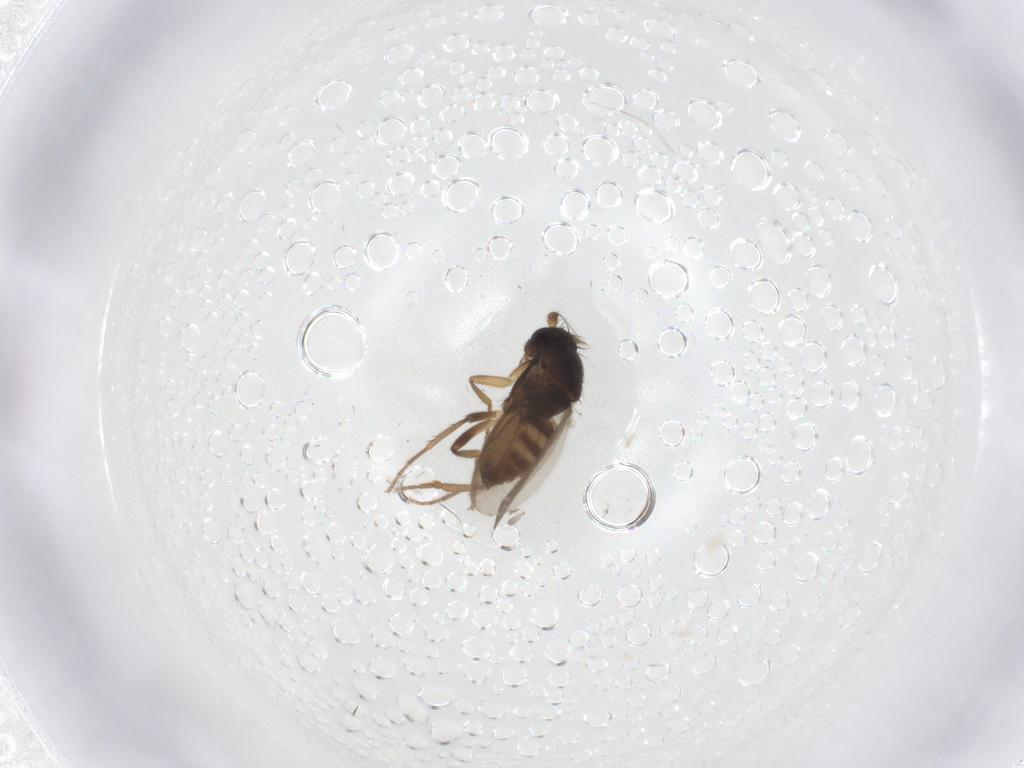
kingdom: Animalia
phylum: Arthropoda
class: Insecta
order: Diptera
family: Sphaeroceridae
